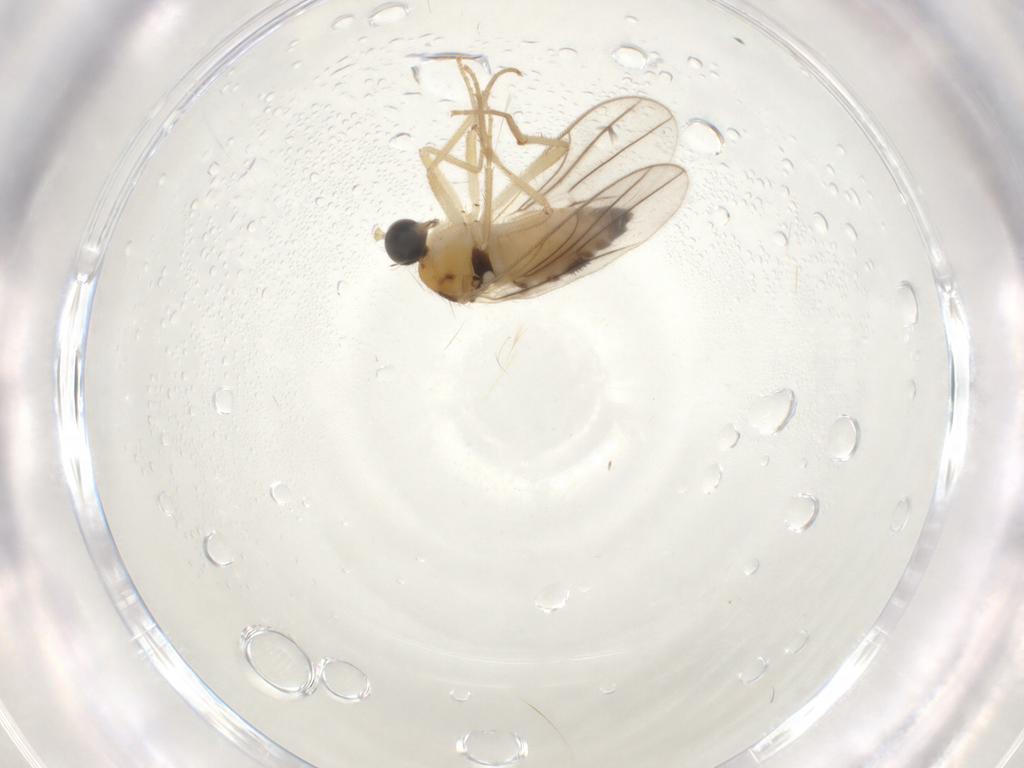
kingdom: Animalia
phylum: Arthropoda
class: Insecta
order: Diptera
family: Hybotidae
